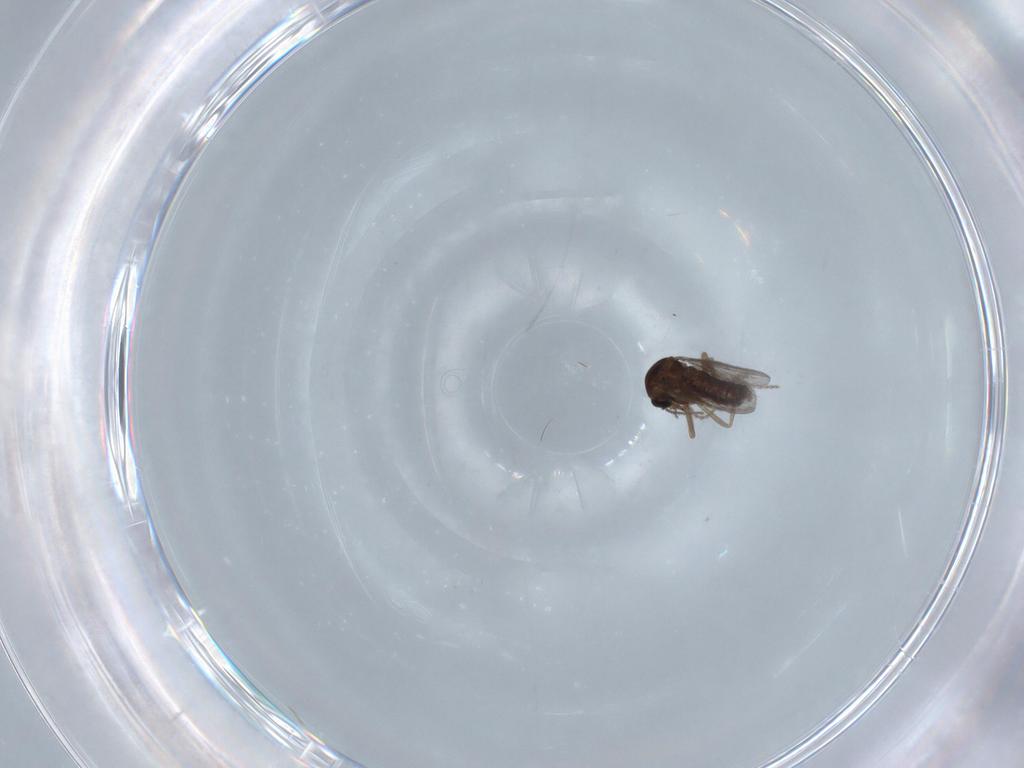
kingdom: Animalia
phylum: Arthropoda
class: Insecta
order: Diptera
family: Ceratopogonidae
